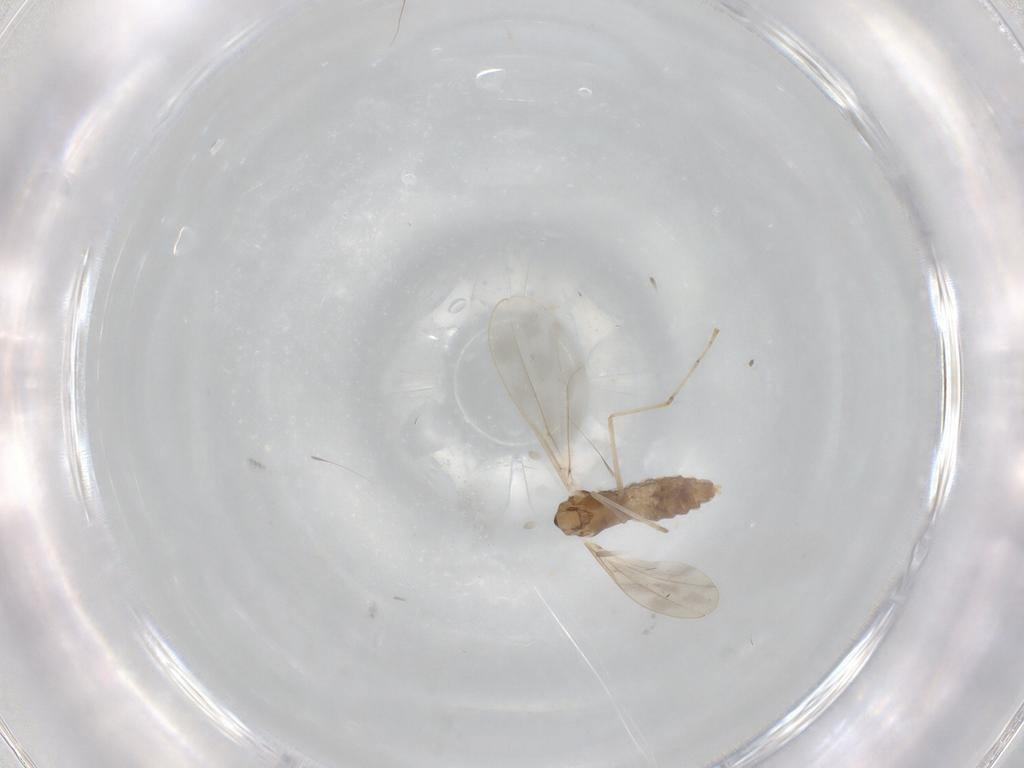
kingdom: Animalia
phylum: Arthropoda
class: Insecta
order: Diptera
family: Cecidomyiidae
